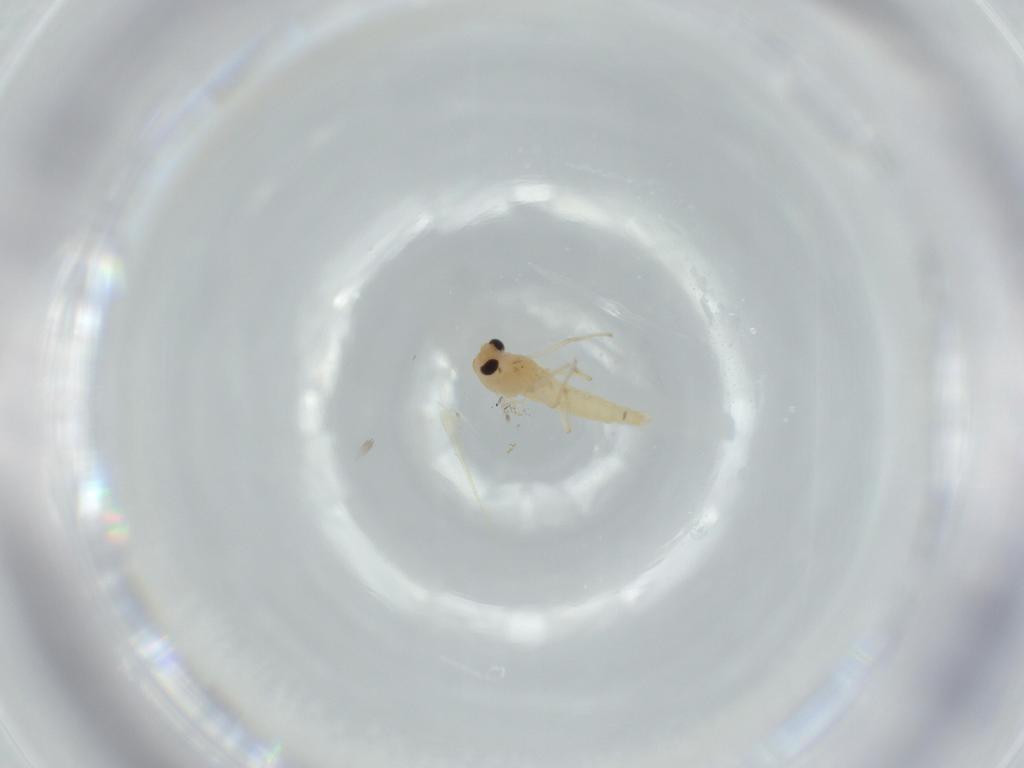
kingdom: Animalia
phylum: Arthropoda
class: Insecta
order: Diptera
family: Chironomidae
